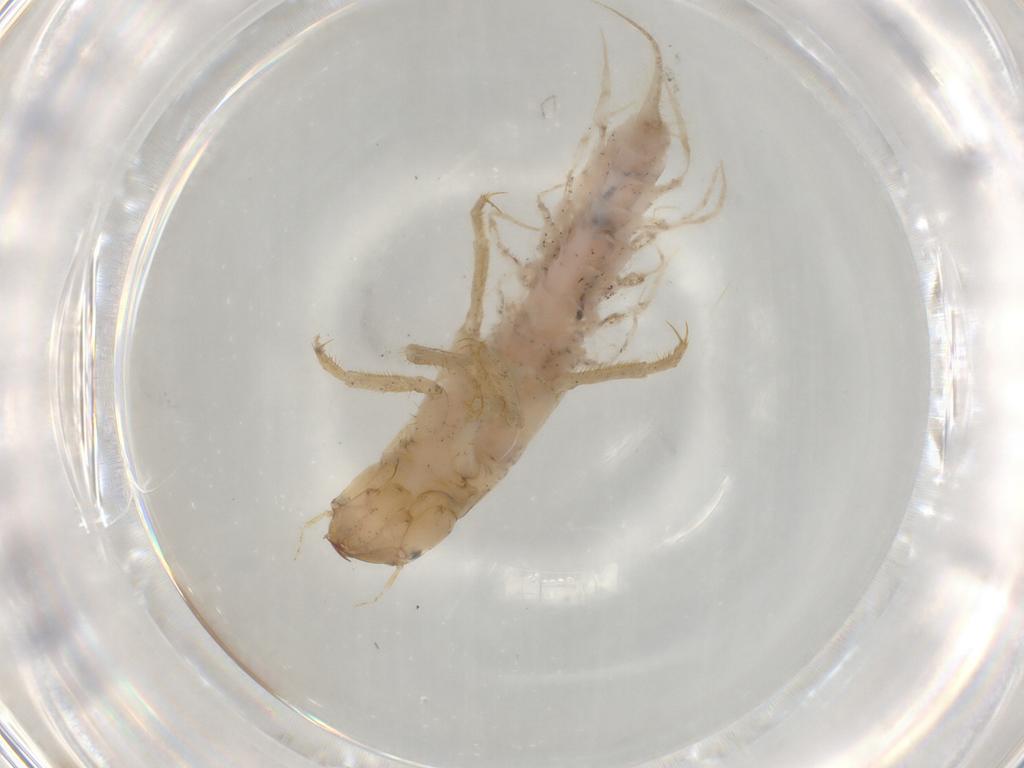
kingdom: Animalia
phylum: Arthropoda
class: Insecta
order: Megaloptera
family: Sialidae
